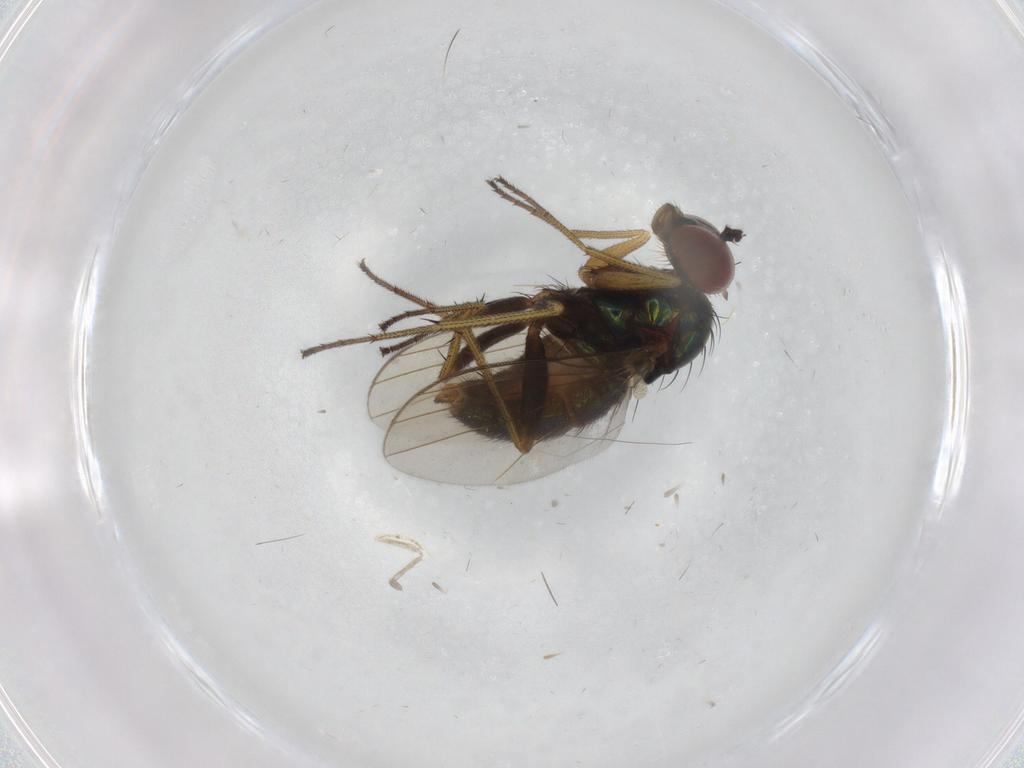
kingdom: Animalia
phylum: Arthropoda
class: Insecta
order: Diptera
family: Dolichopodidae
